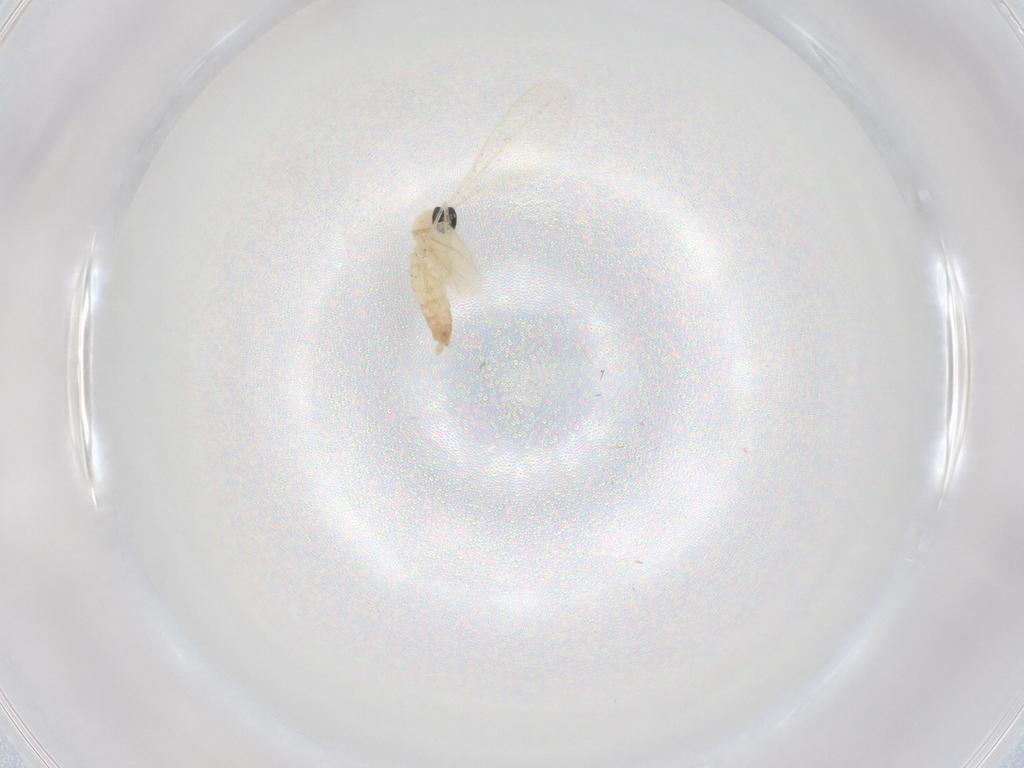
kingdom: Animalia
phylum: Arthropoda
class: Insecta
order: Diptera
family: Cecidomyiidae
